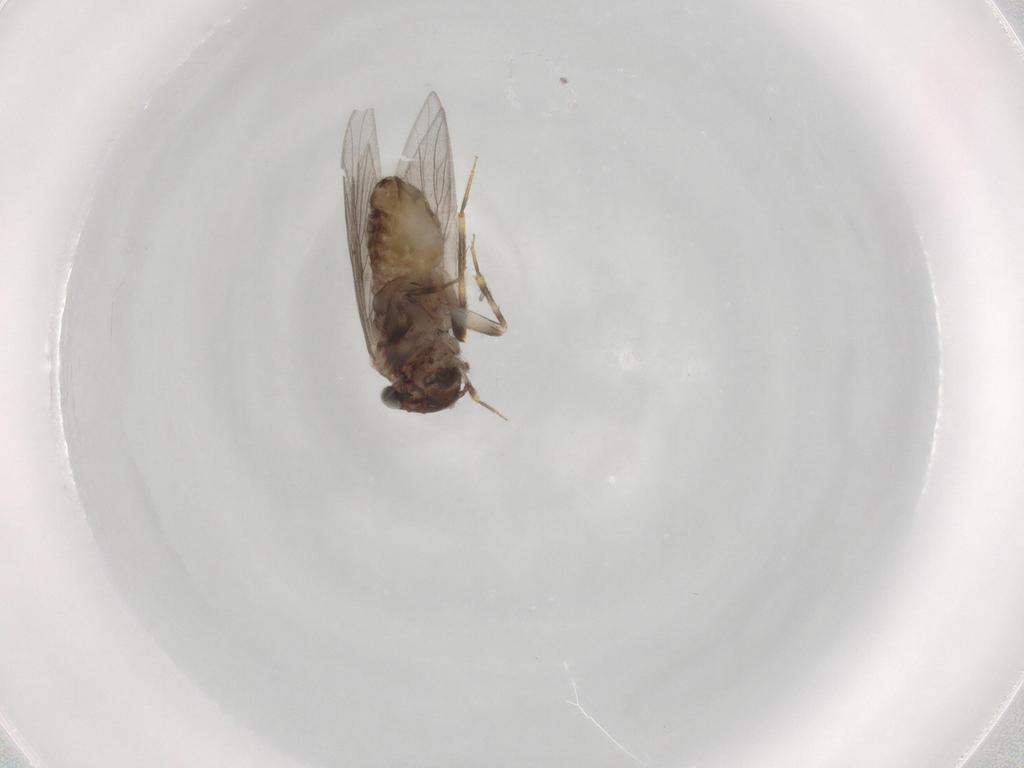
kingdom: Animalia
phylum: Arthropoda
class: Insecta
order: Psocodea
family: Lepidopsocidae
